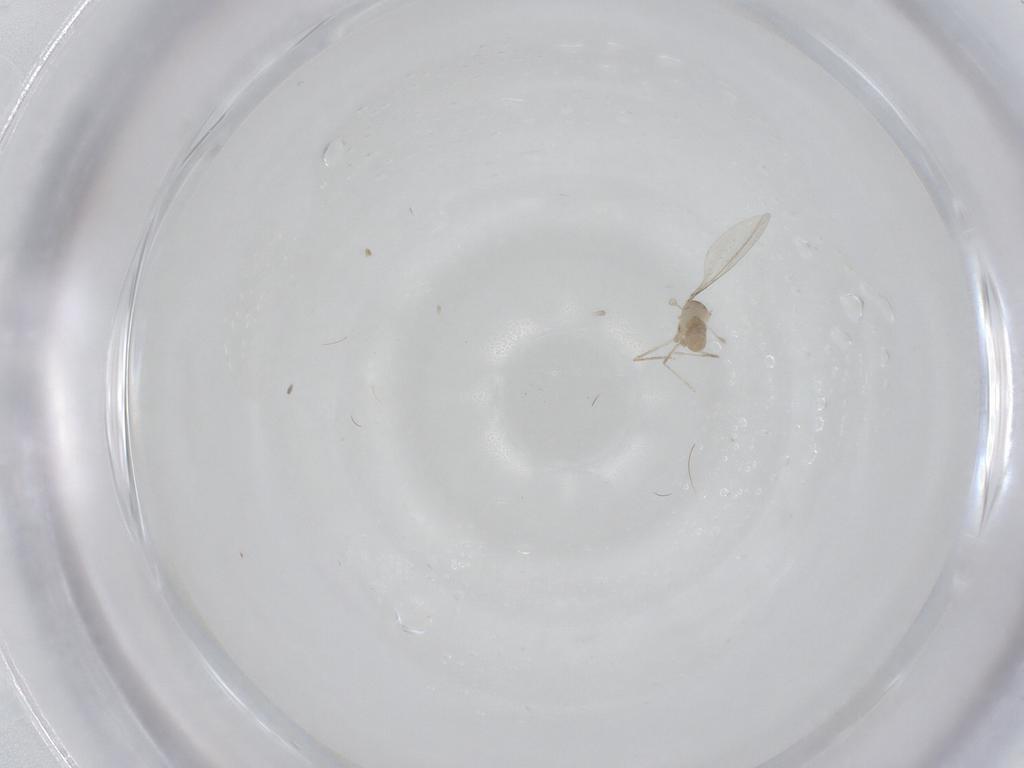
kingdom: Animalia
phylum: Arthropoda
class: Insecta
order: Diptera
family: Cecidomyiidae
